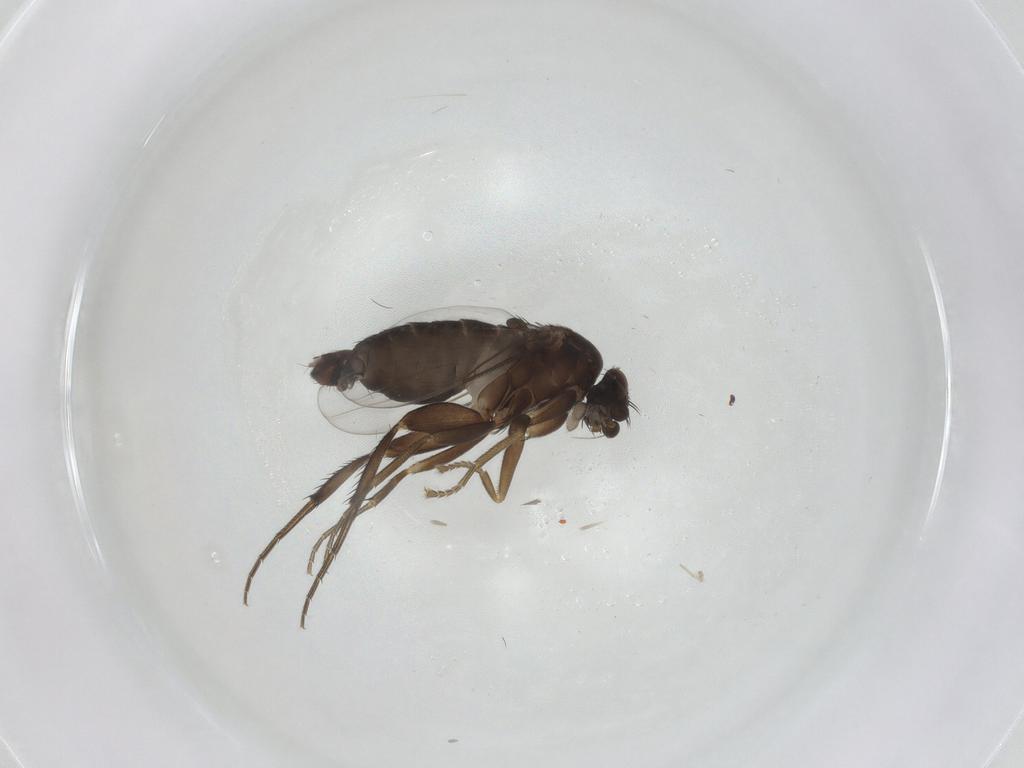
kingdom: Animalia
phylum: Arthropoda
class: Insecta
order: Diptera
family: Phoridae
